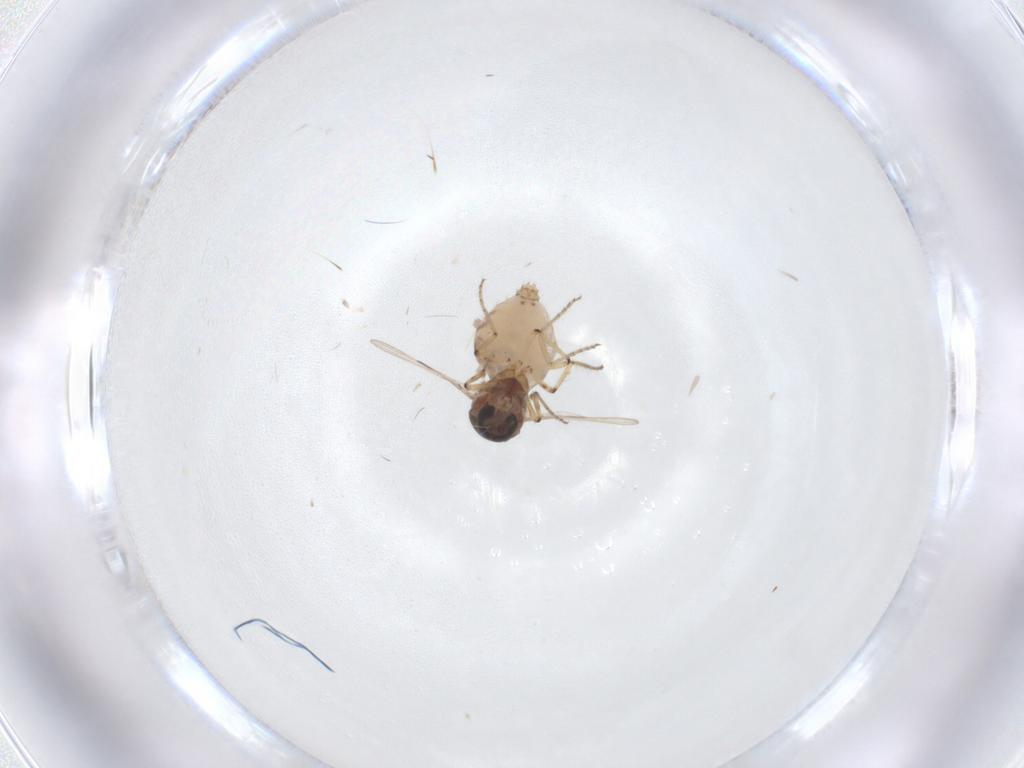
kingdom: Animalia
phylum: Arthropoda
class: Insecta
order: Diptera
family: Ceratopogonidae
